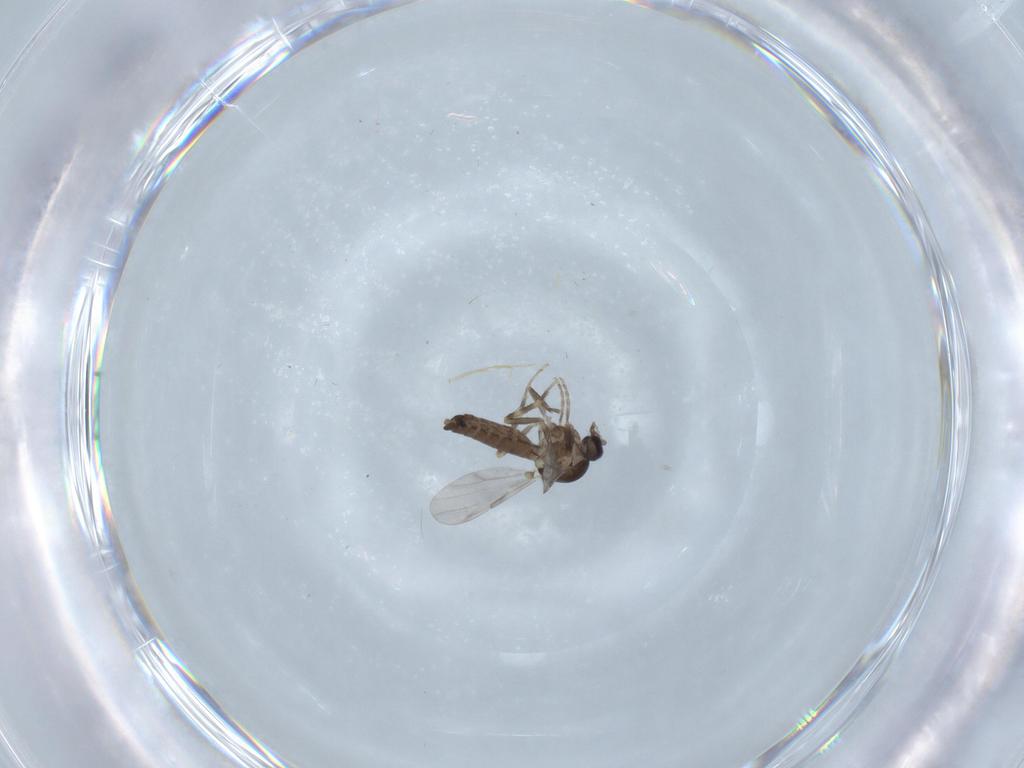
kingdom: Animalia
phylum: Arthropoda
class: Insecta
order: Diptera
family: Ceratopogonidae
